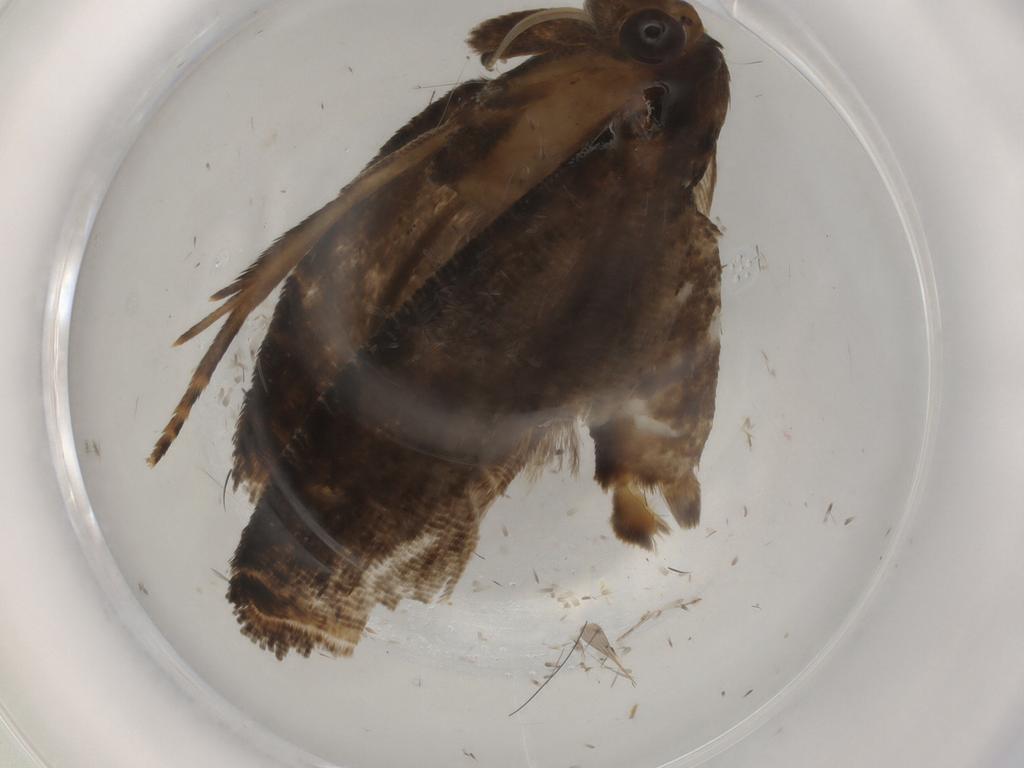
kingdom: Animalia
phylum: Arthropoda
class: Insecta
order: Lepidoptera
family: Tortricidae
